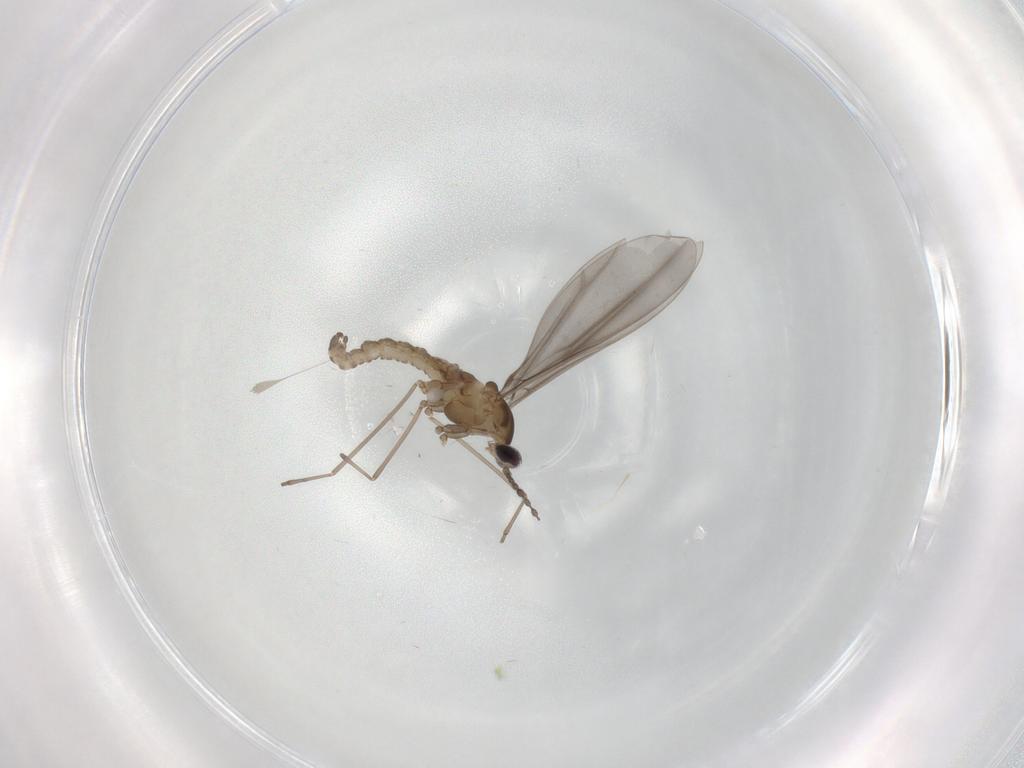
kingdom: Animalia
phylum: Arthropoda
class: Insecta
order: Diptera
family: Cecidomyiidae
